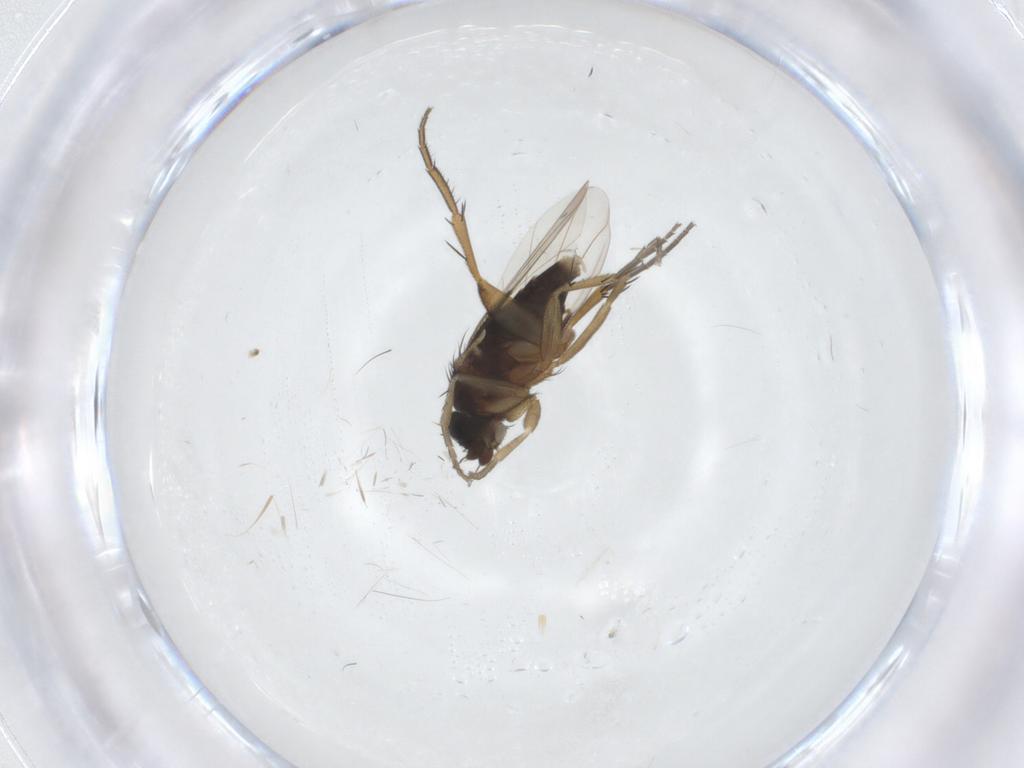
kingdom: Animalia
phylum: Arthropoda
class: Insecta
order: Diptera
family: Phoridae
